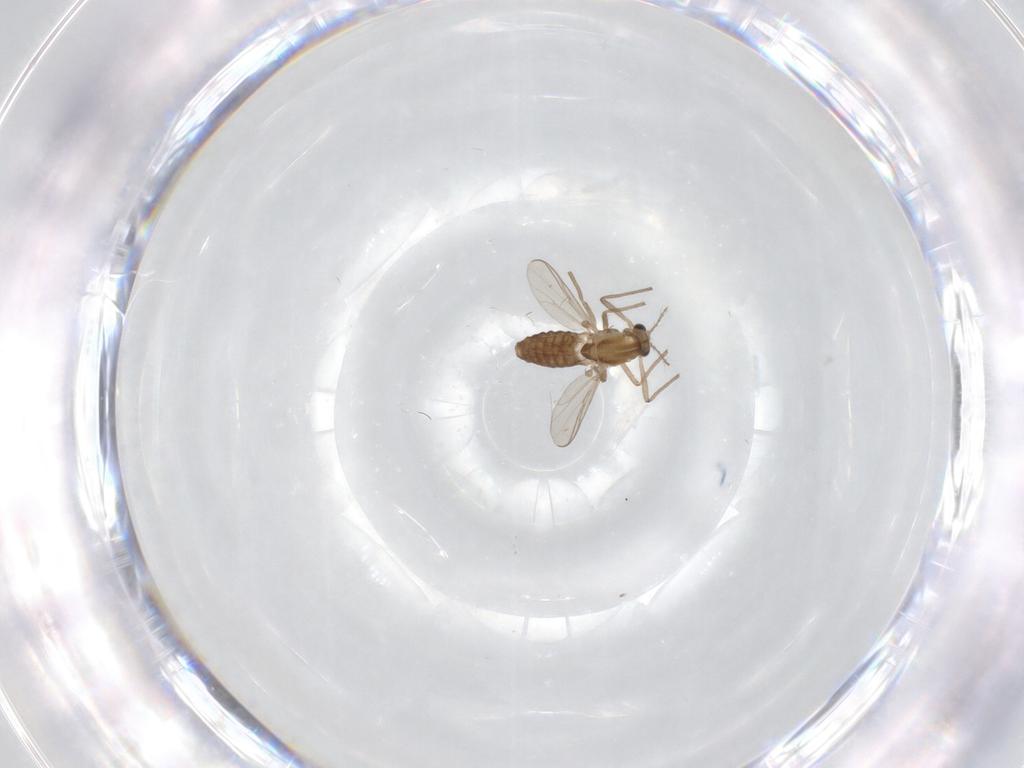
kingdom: Animalia
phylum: Arthropoda
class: Insecta
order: Diptera
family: Chironomidae
